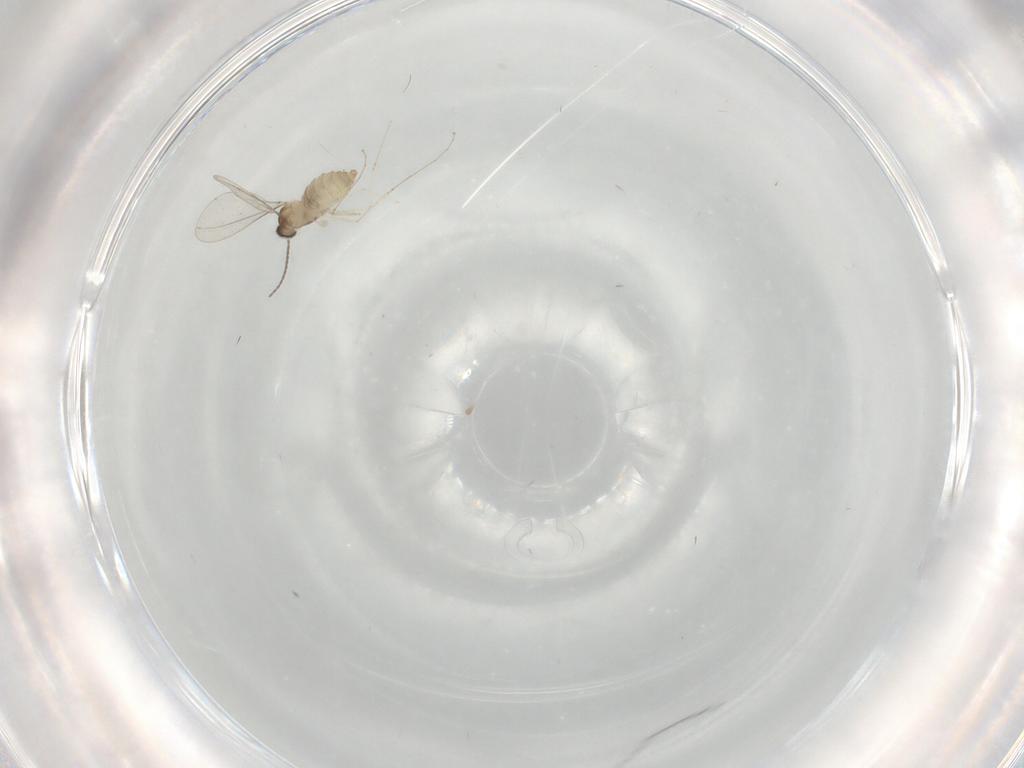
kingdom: Animalia
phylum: Arthropoda
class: Insecta
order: Diptera
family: Cecidomyiidae
